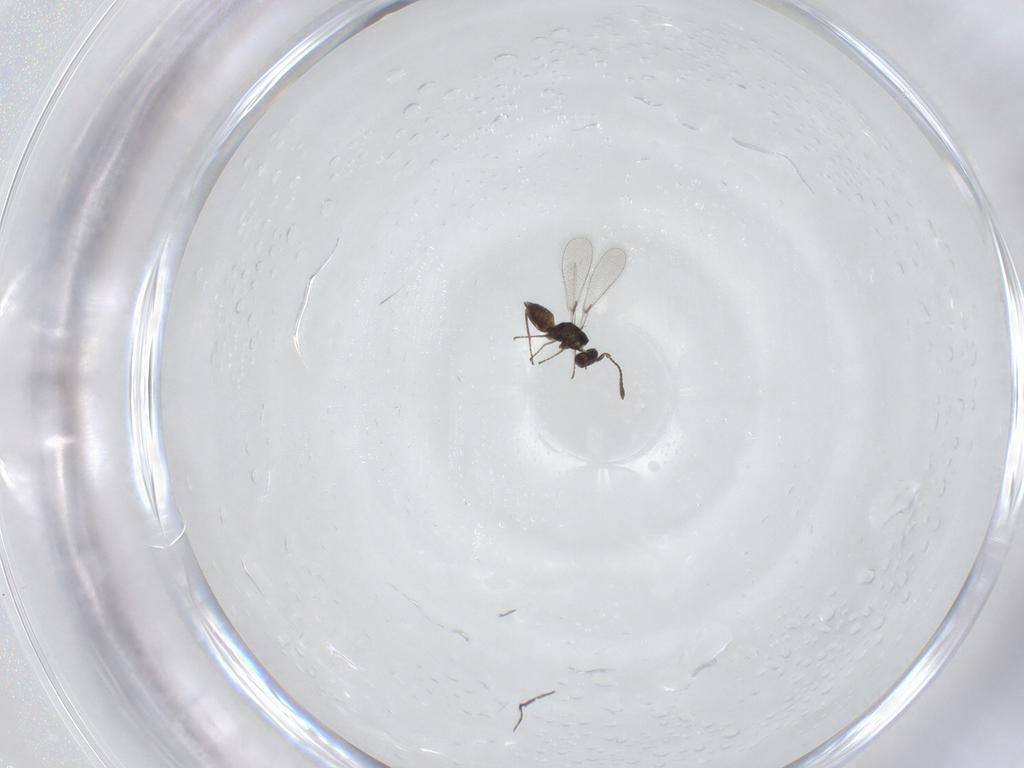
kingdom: Animalia
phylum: Arthropoda
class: Insecta
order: Hymenoptera
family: Mymaridae
